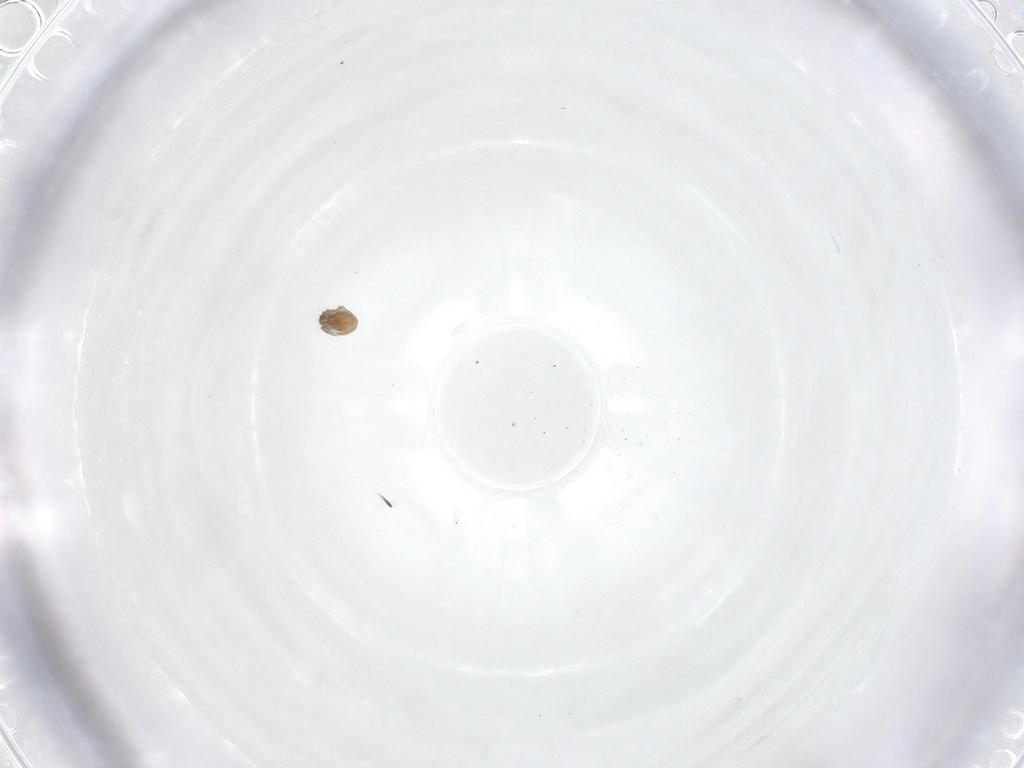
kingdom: Animalia
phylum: Arthropoda
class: Arachnida
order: Trombidiformes
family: Pionidae
